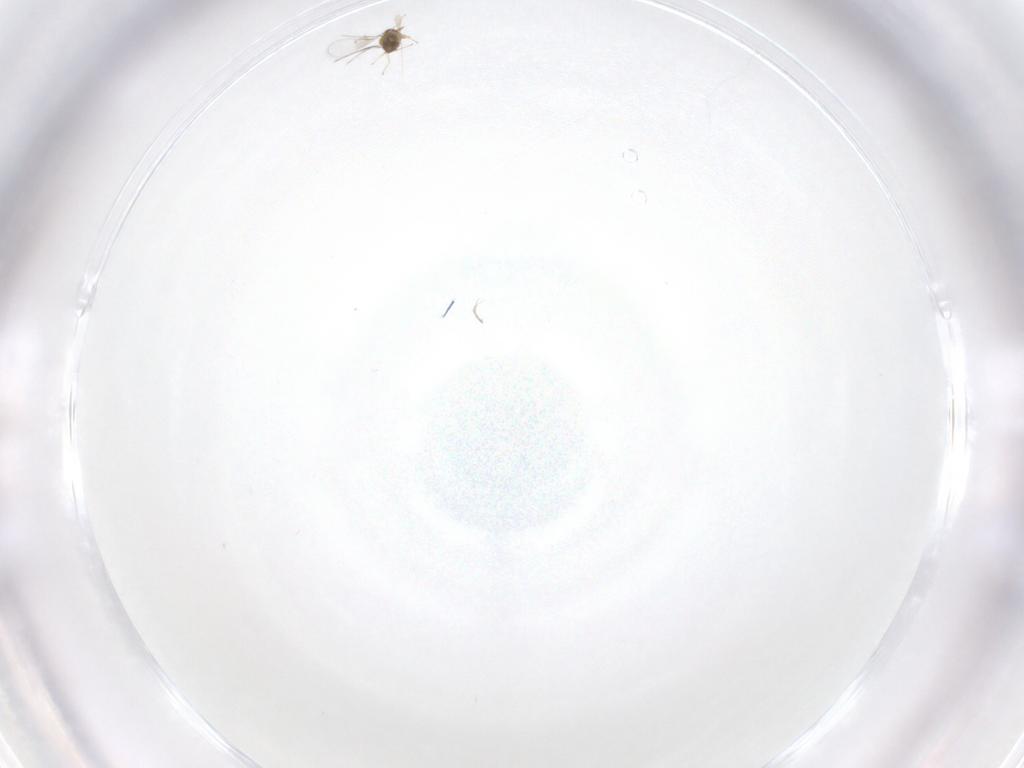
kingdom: Animalia
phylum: Arthropoda
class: Insecta
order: Hymenoptera
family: Trichogrammatidae
